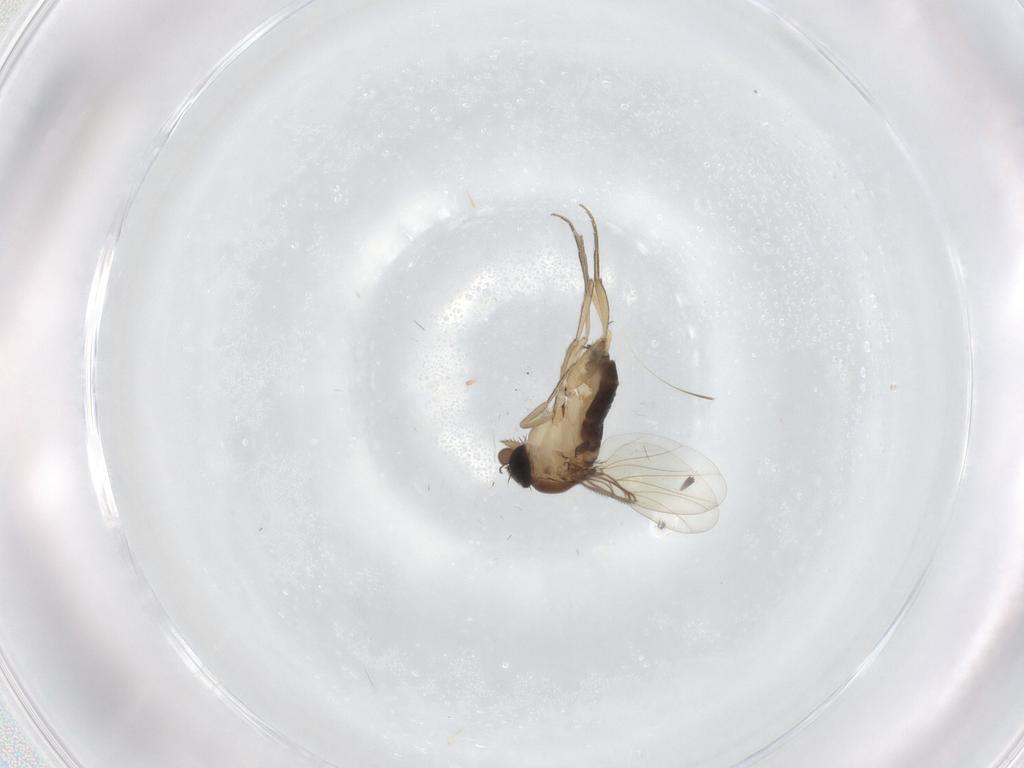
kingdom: Animalia
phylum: Arthropoda
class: Insecta
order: Diptera
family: Phoridae
